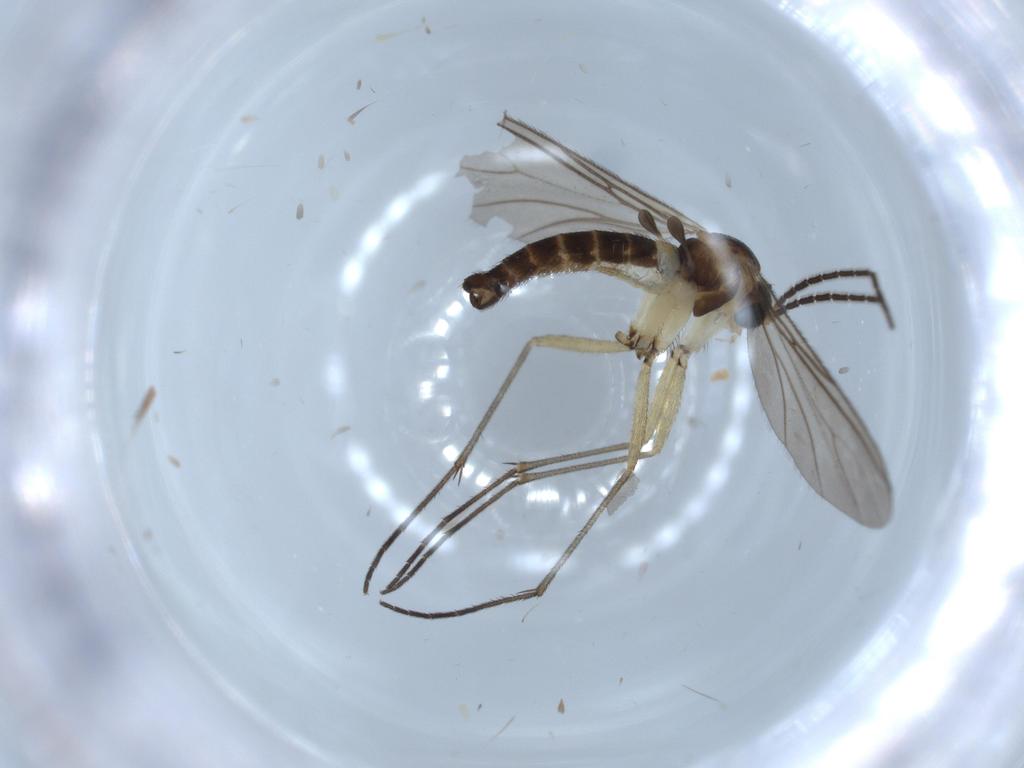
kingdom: Animalia
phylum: Arthropoda
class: Insecta
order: Diptera
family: Sciaridae
